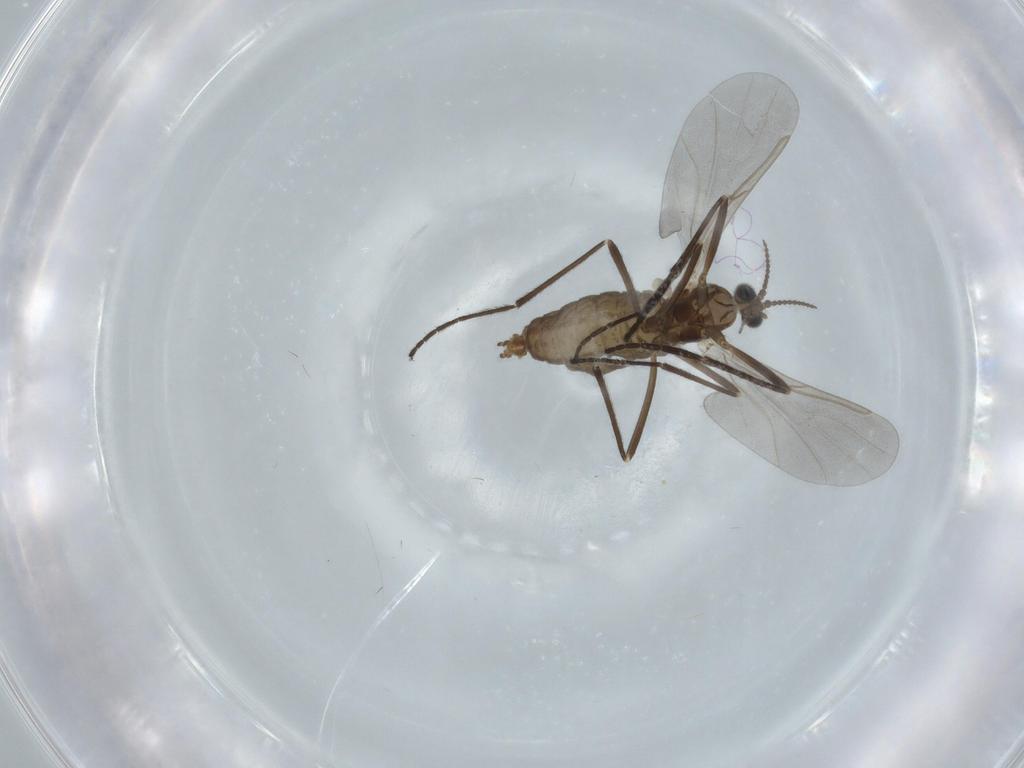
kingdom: Animalia
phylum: Arthropoda
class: Insecta
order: Diptera
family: Cecidomyiidae
